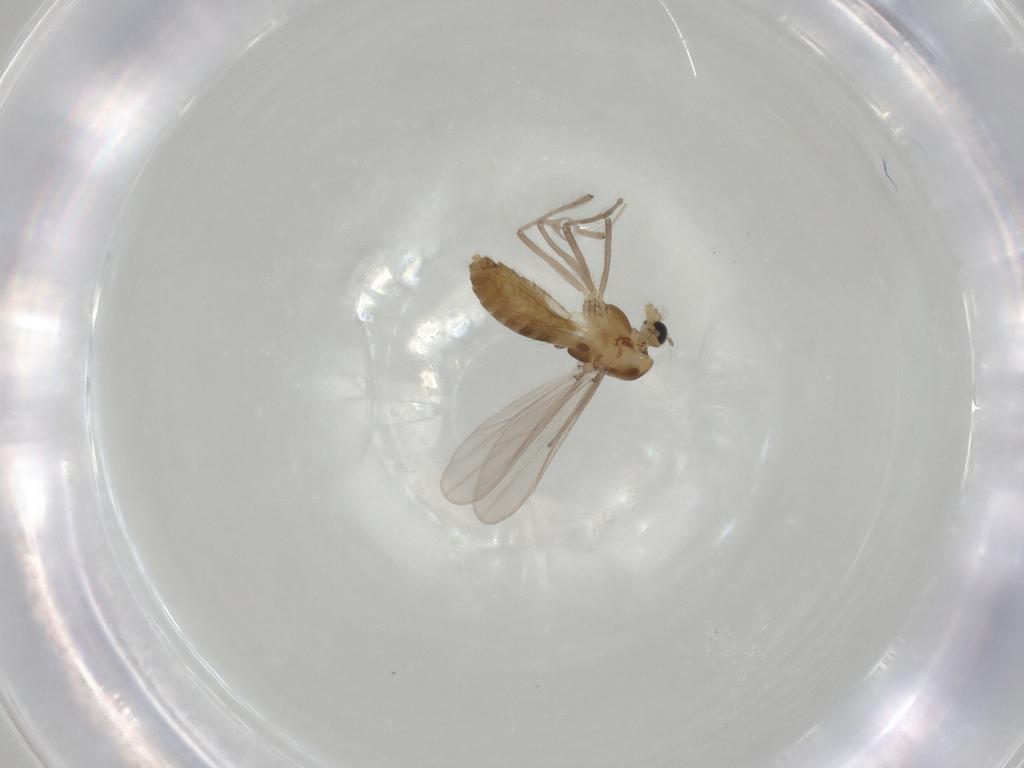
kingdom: Animalia
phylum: Arthropoda
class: Insecta
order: Diptera
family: Chironomidae
